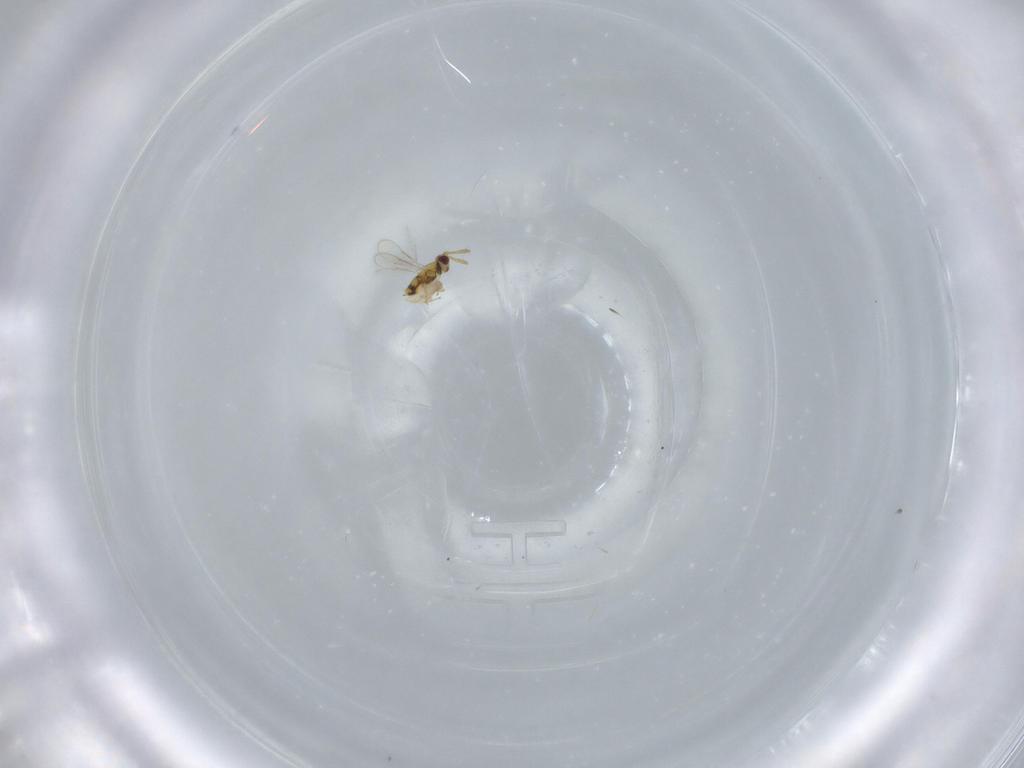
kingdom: Animalia
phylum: Arthropoda
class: Insecta
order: Hymenoptera
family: Aphelinidae
